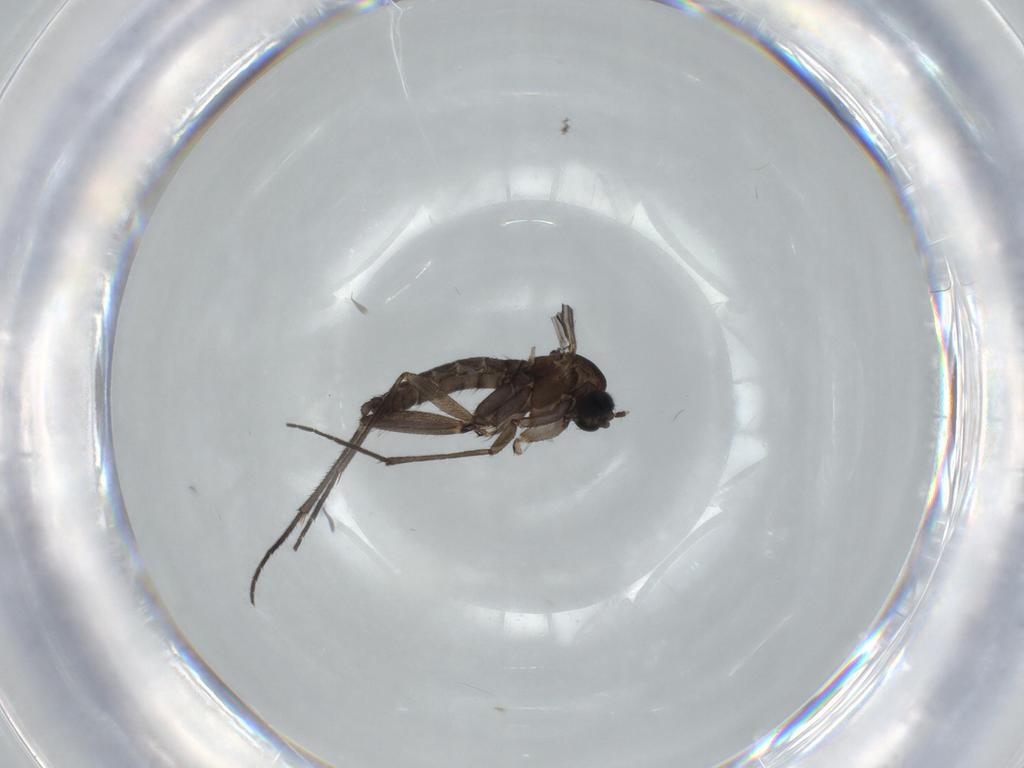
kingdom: Animalia
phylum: Arthropoda
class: Insecta
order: Diptera
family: Sciaridae
